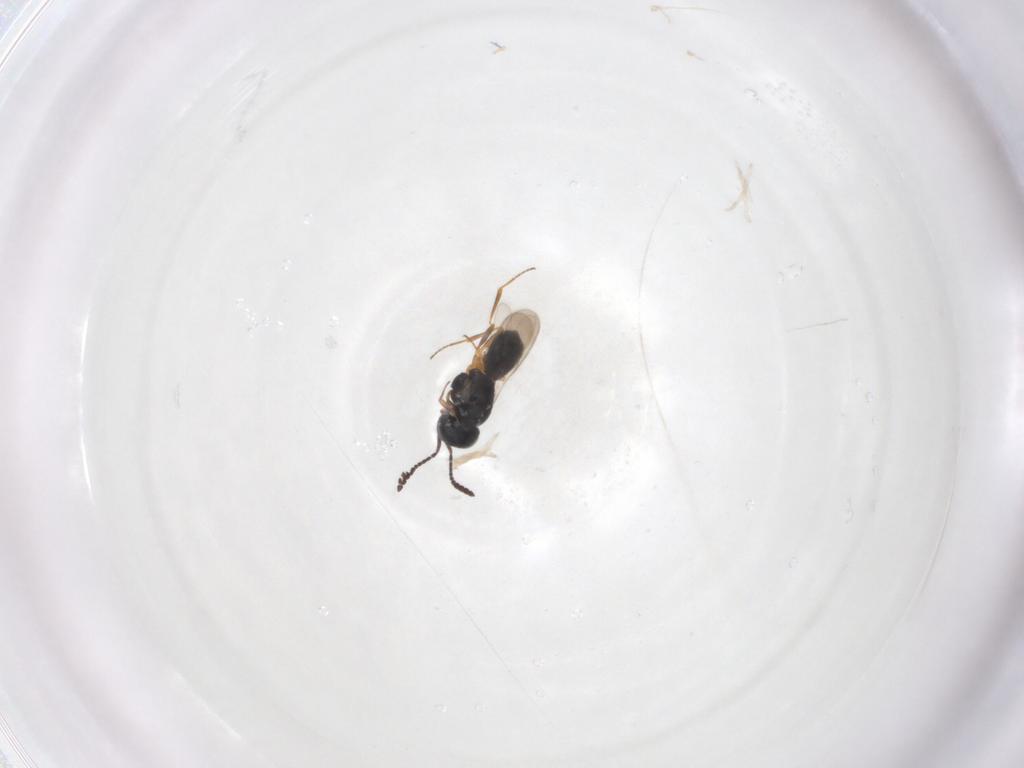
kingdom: Animalia
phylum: Arthropoda
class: Insecta
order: Hymenoptera
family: Scelionidae
